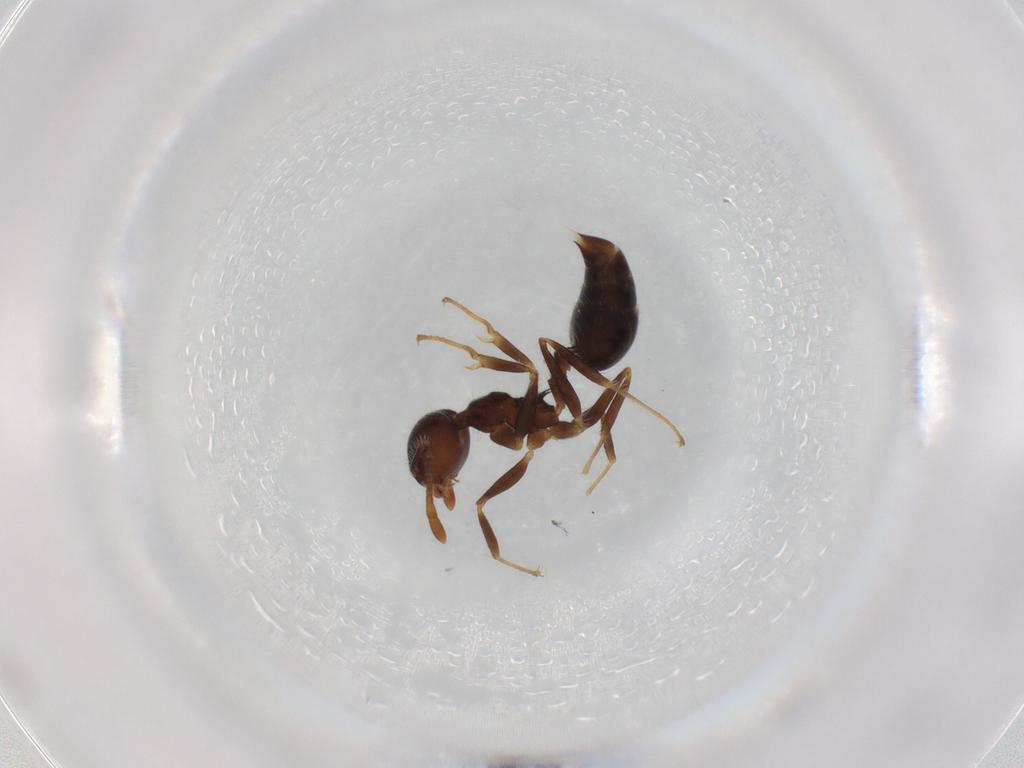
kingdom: Animalia
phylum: Arthropoda
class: Insecta
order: Hymenoptera
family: Formicidae
